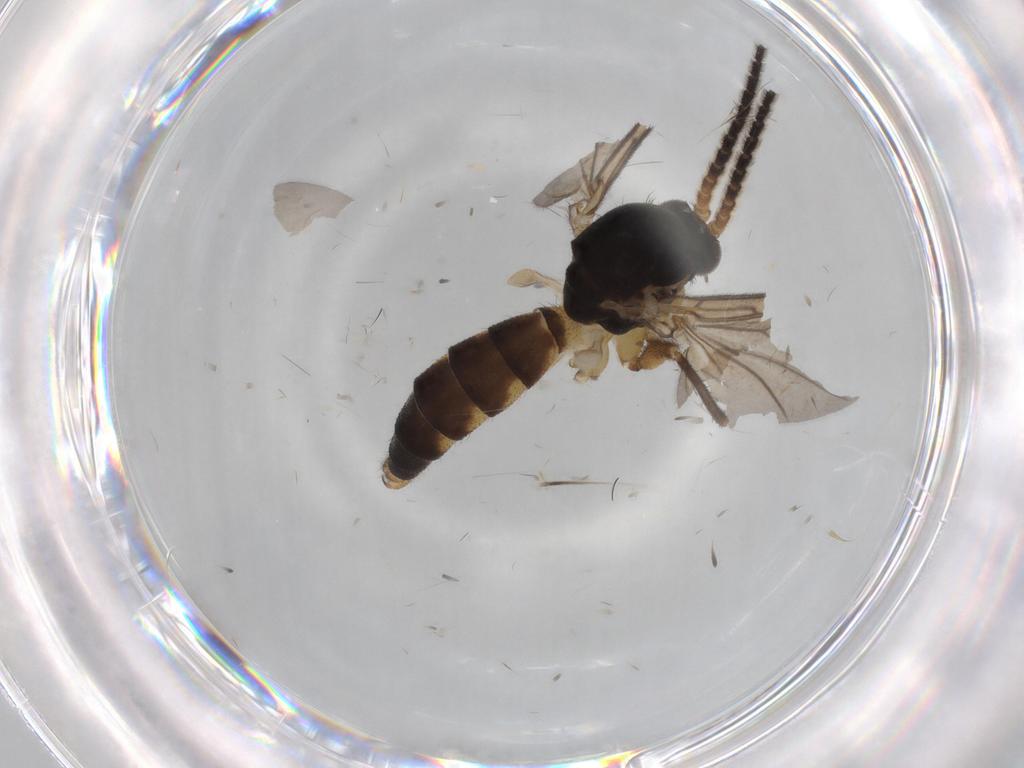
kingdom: Animalia
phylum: Arthropoda
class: Insecta
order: Diptera
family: Sciaridae
